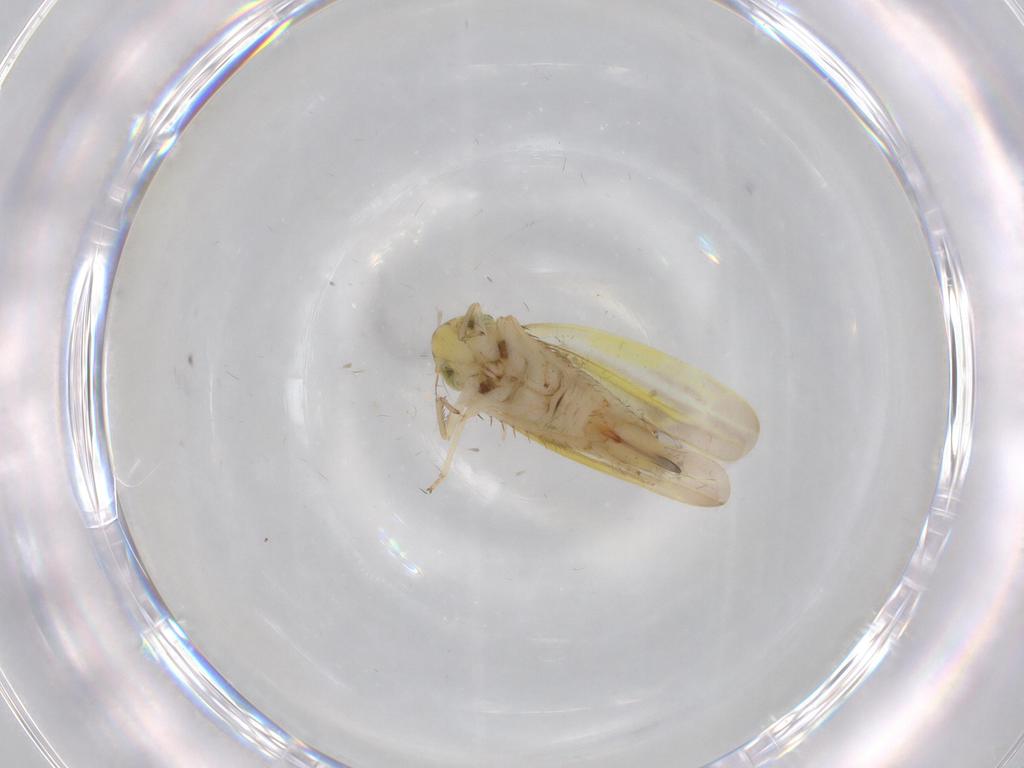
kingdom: Animalia
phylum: Arthropoda
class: Insecta
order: Hemiptera
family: Cicadellidae
